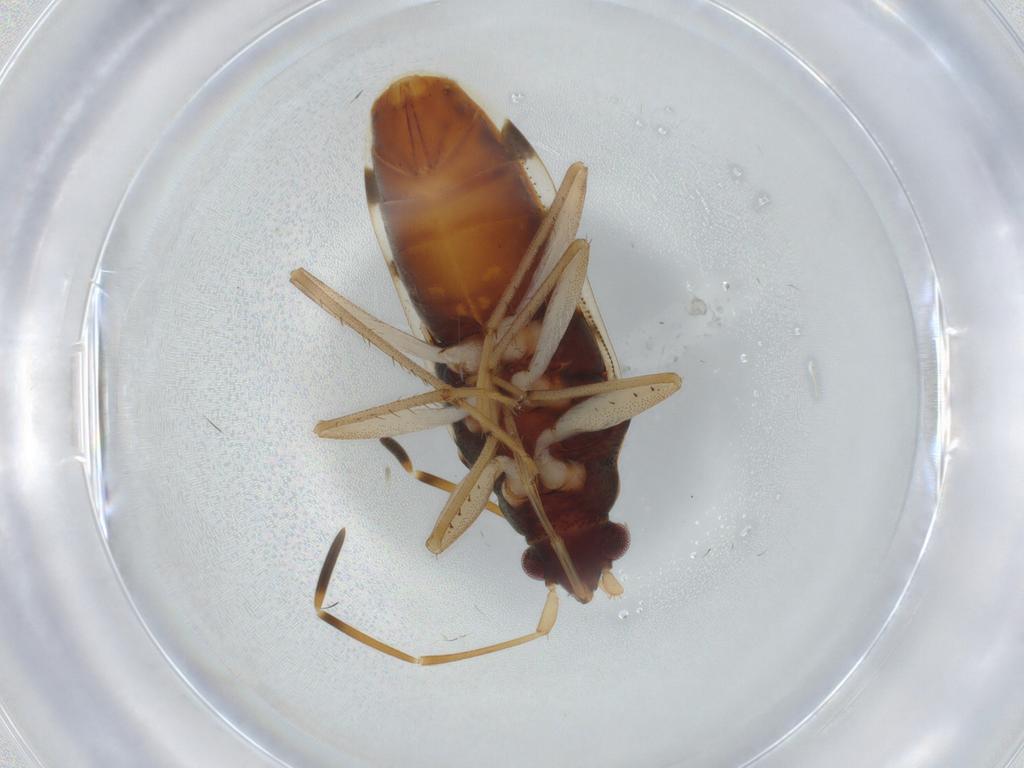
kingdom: Animalia
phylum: Arthropoda
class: Insecta
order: Hemiptera
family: Rhyparochromidae
